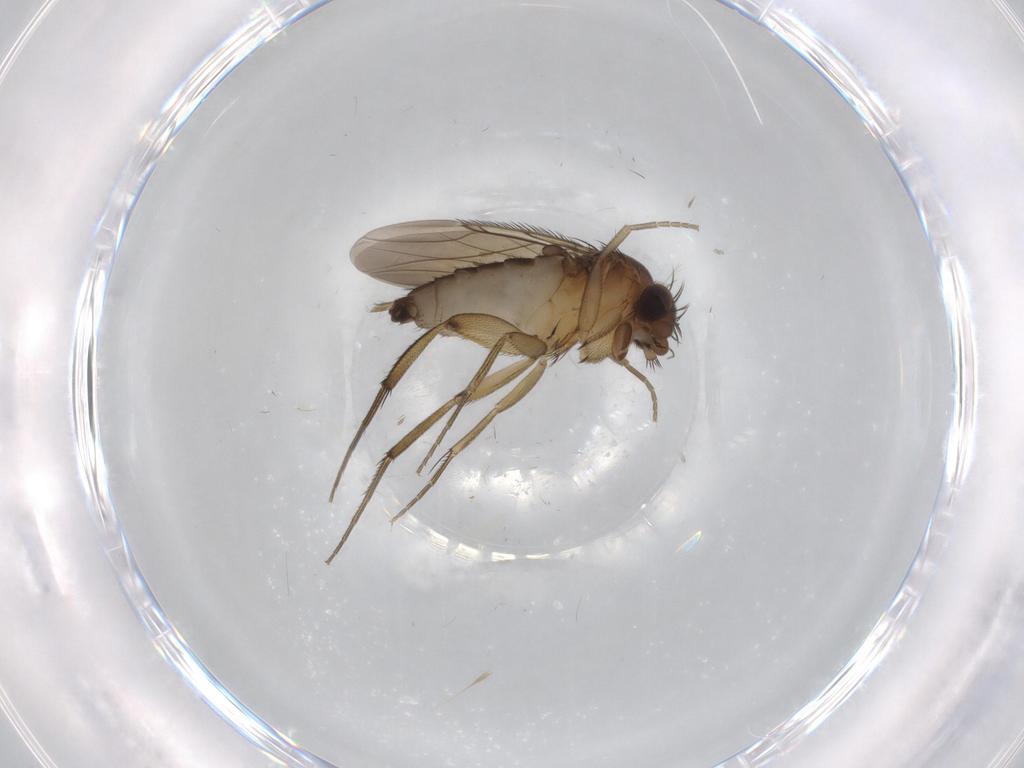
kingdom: Animalia
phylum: Arthropoda
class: Insecta
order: Diptera
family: Phoridae
